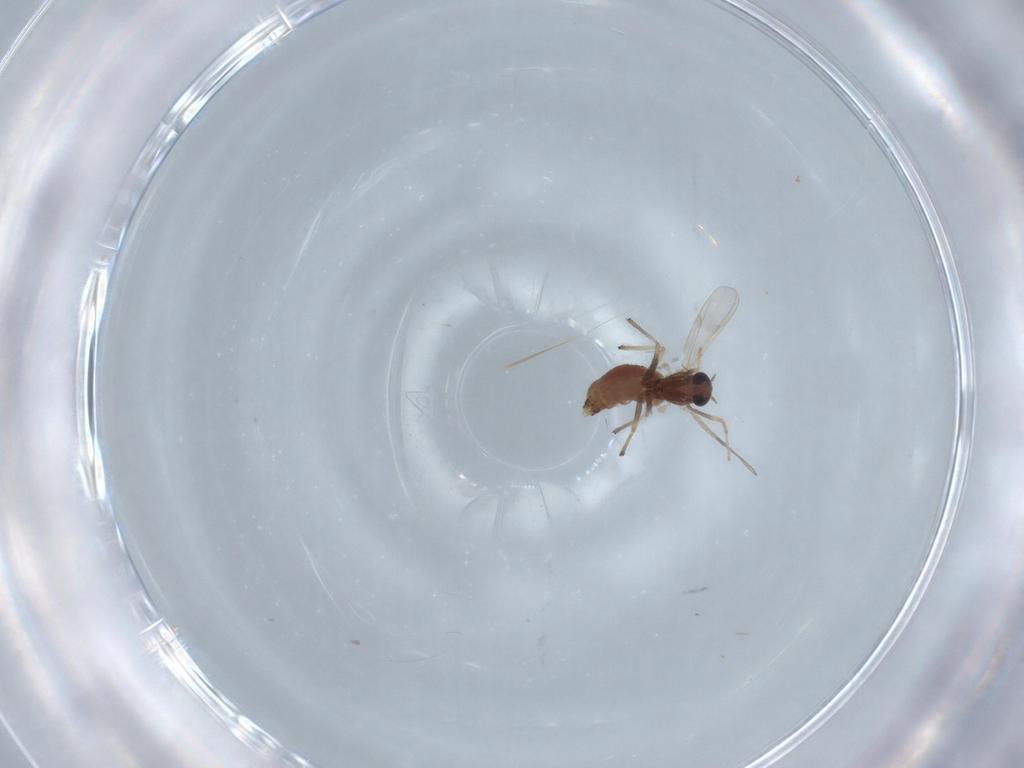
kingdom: Animalia
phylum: Arthropoda
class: Insecta
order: Diptera
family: Chironomidae
